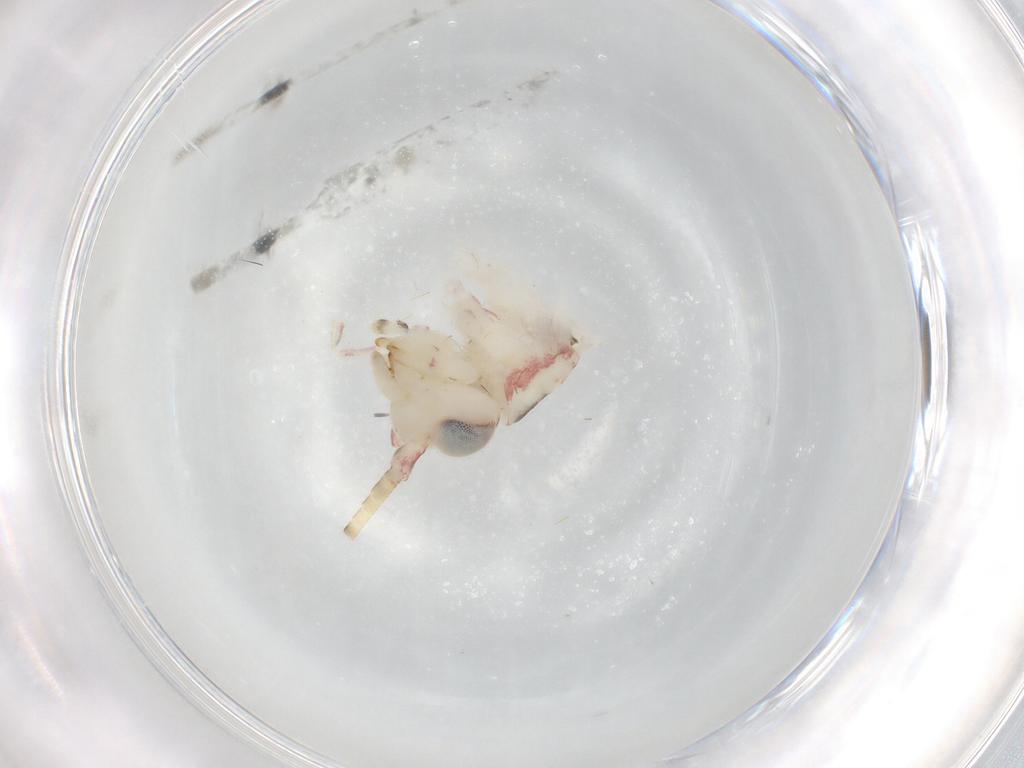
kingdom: Animalia
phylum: Arthropoda
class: Insecta
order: Orthoptera
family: Trigonidiidae
